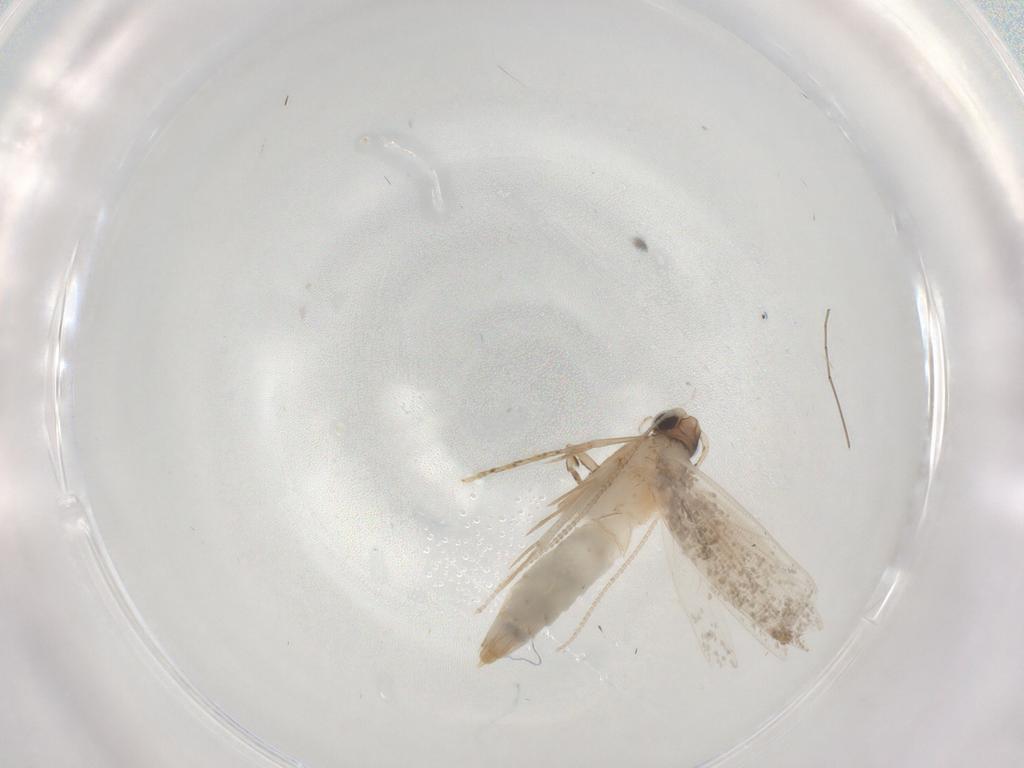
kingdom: Animalia
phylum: Arthropoda
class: Insecta
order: Lepidoptera
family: Tineidae
